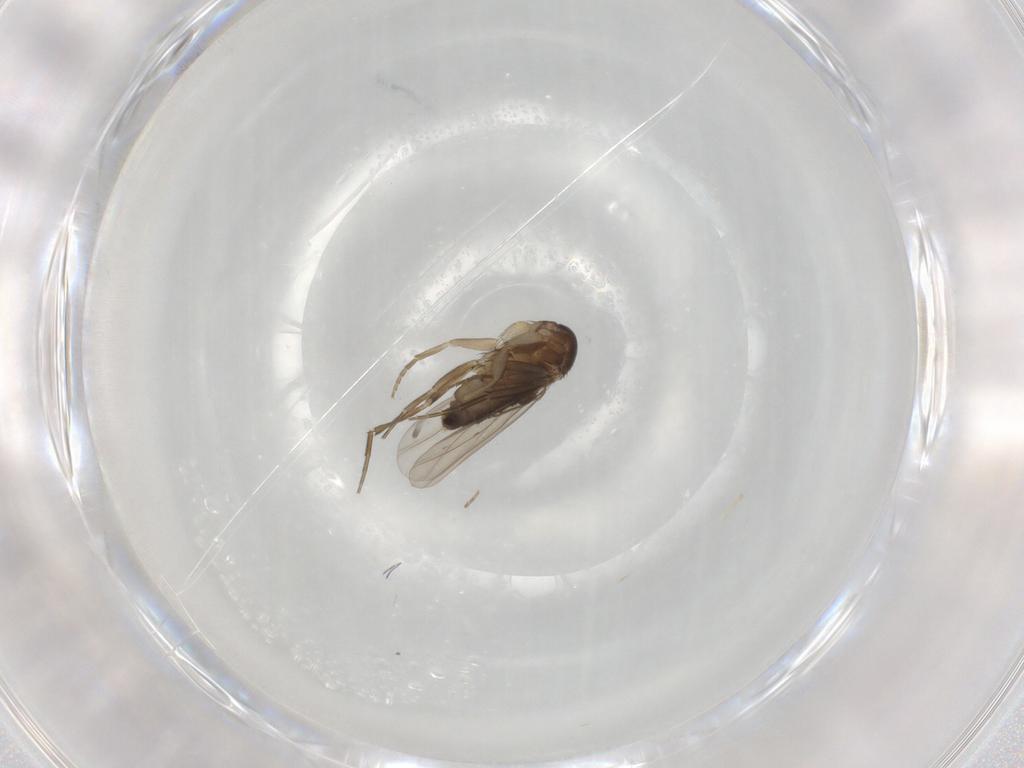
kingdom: Animalia
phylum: Arthropoda
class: Insecta
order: Diptera
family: Phoridae
